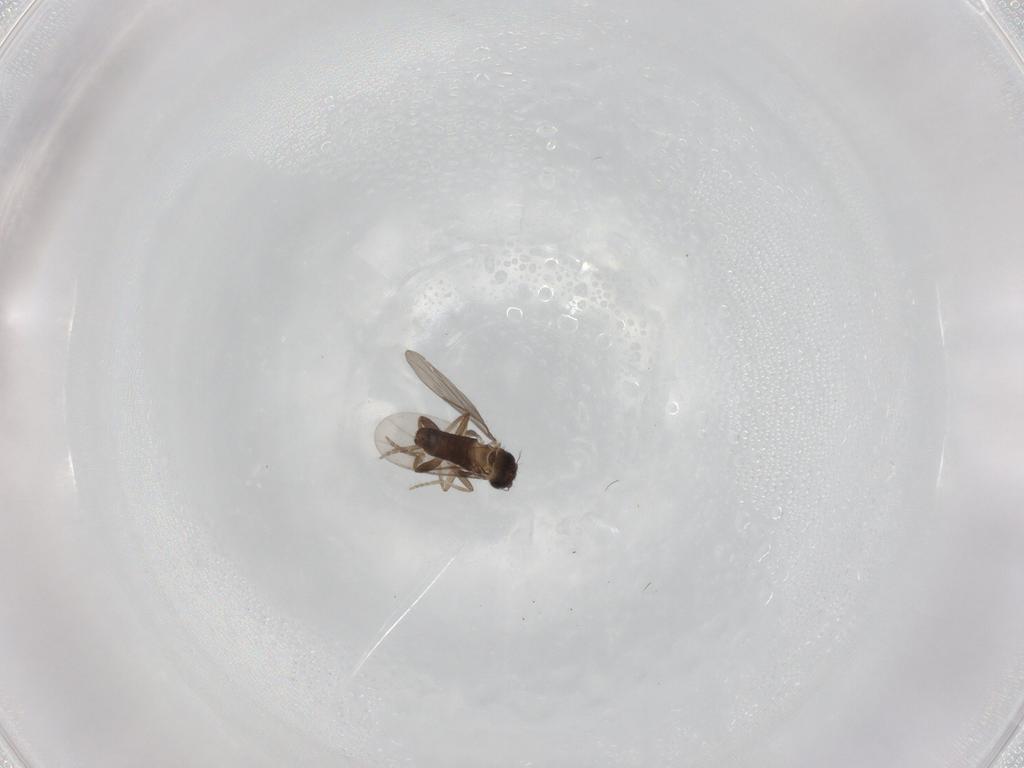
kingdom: Animalia
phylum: Arthropoda
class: Insecta
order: Diptera
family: Phoridae
